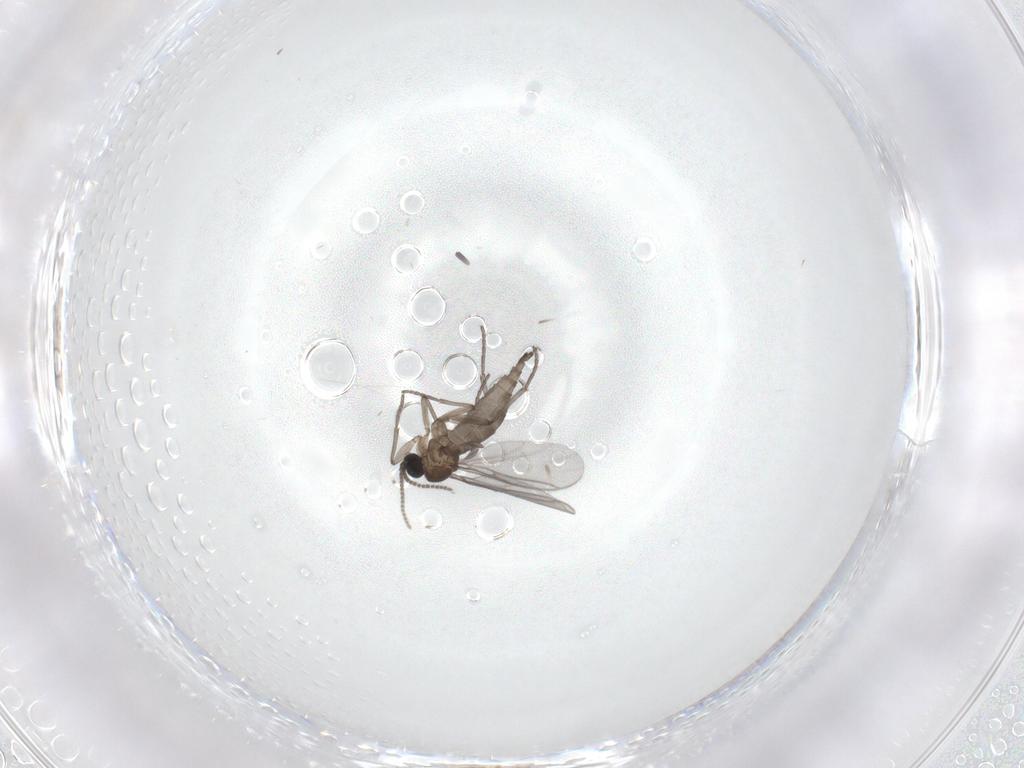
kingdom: Animalia
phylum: Arthropoda
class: Insecta
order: Diptera
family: Sciaridae
